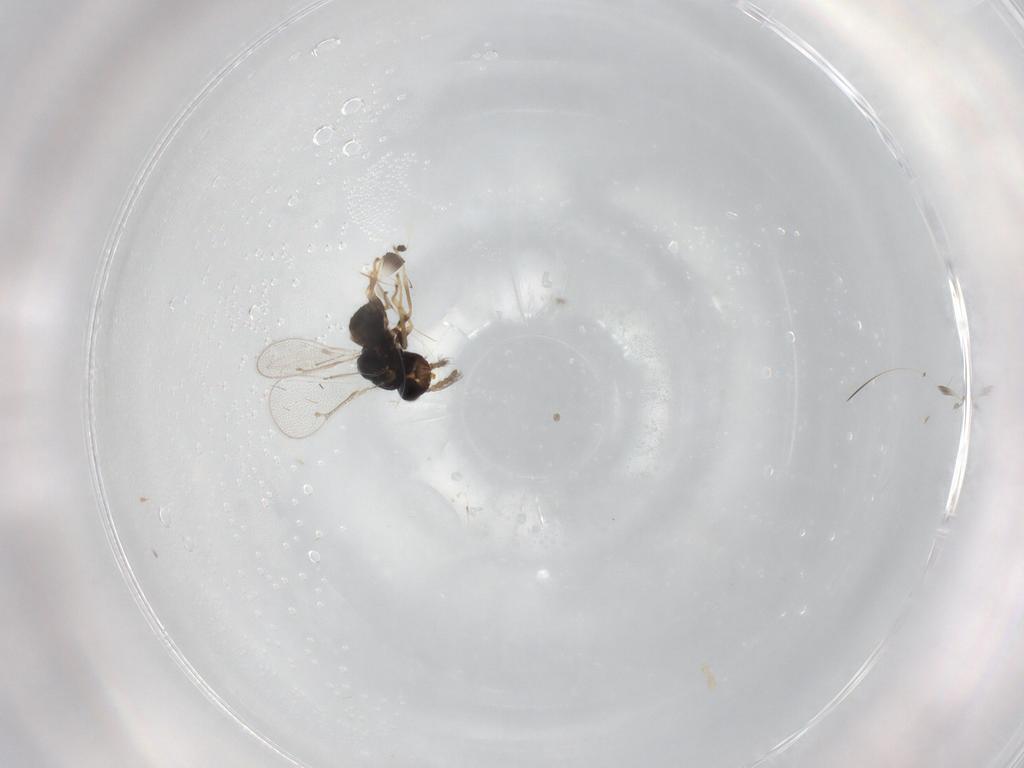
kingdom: Animalia
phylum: Arthropoda
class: Insecta
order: Hymenoptera
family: Eulophidae
